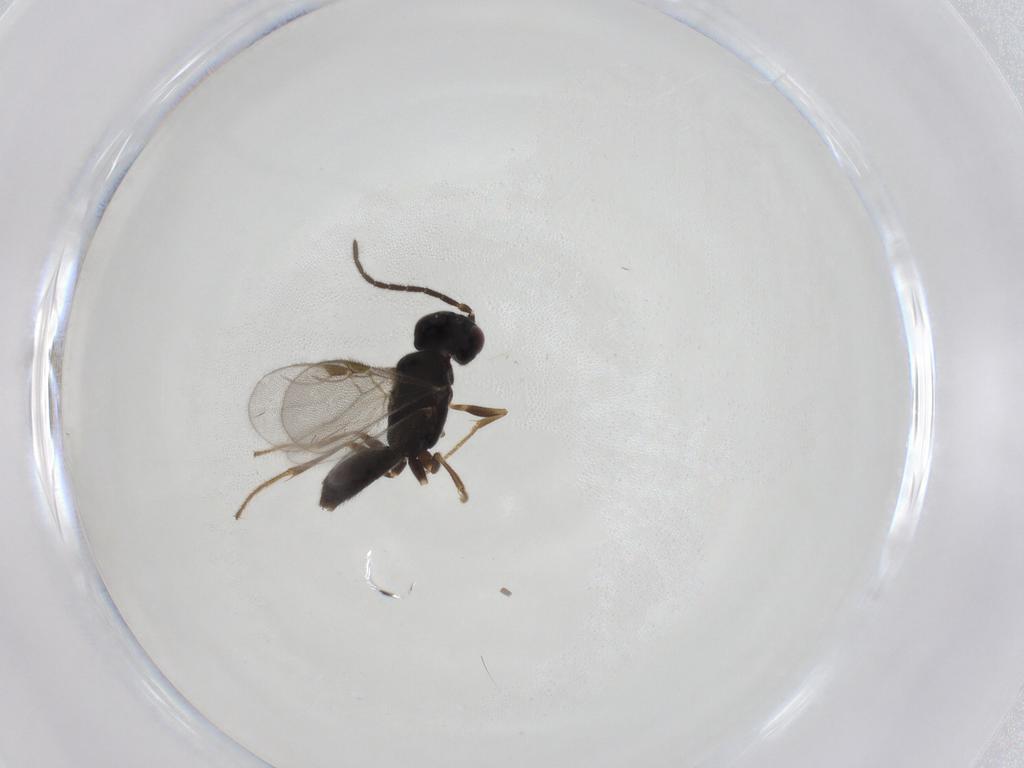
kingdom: Animalia
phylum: Arthropoda
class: Insecta
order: Hymenoptera
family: Dryinidae
